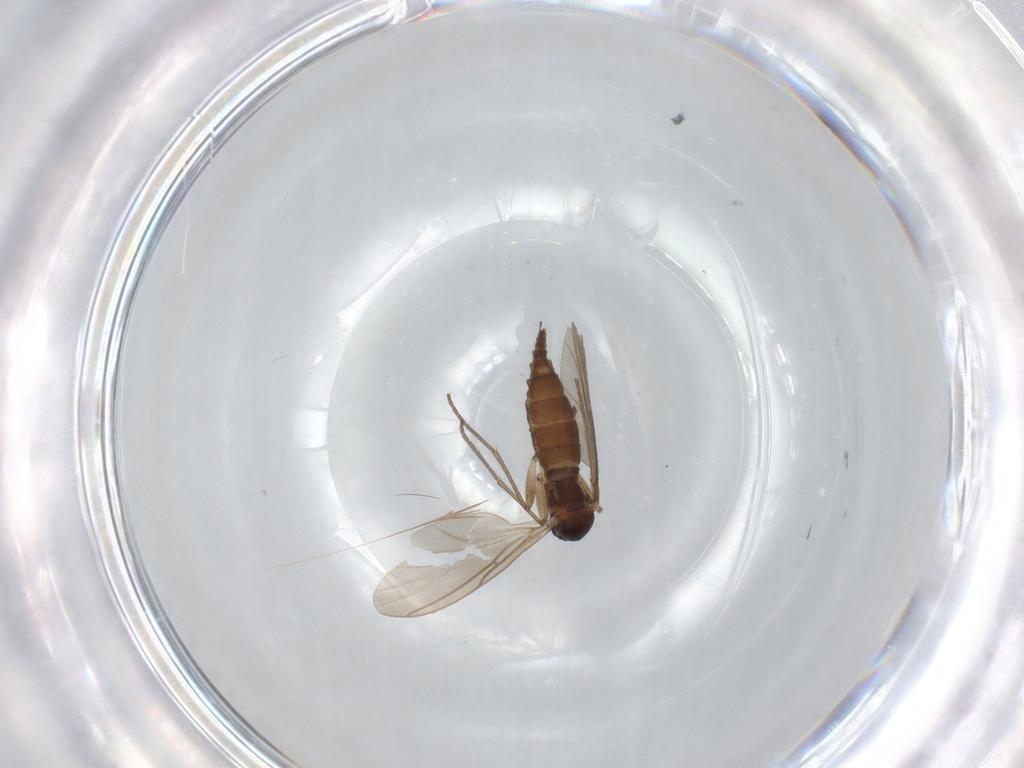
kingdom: Animalia
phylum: Arthropoda
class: Insecta
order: Diptera
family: Sciaridae
